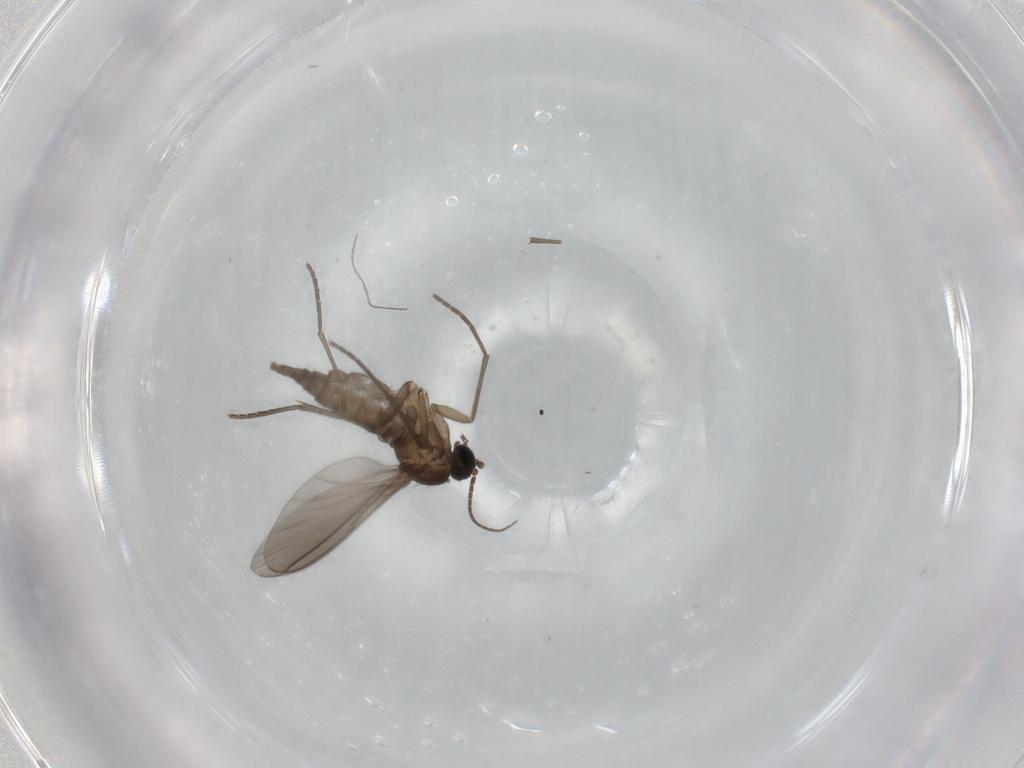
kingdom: Animalia
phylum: Arthropoda
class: Insecta
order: Diptera
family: Sciaridae
